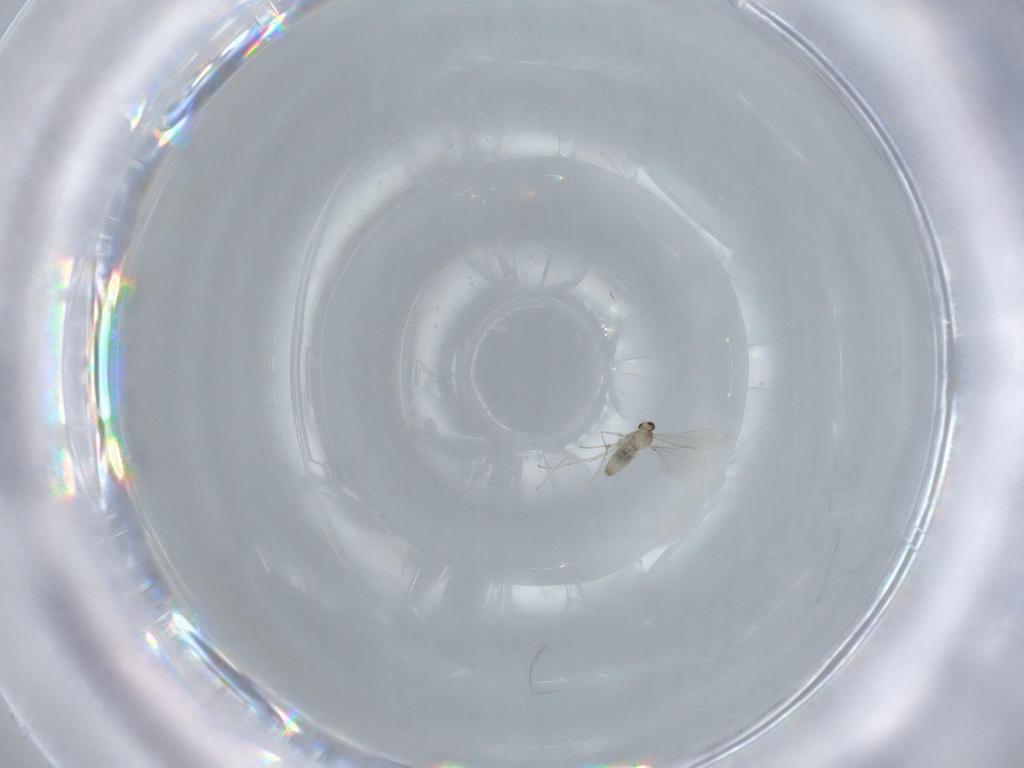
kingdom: Animalia
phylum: Arthropoda
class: Insecta
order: Diptera
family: Cecidomyiidae
